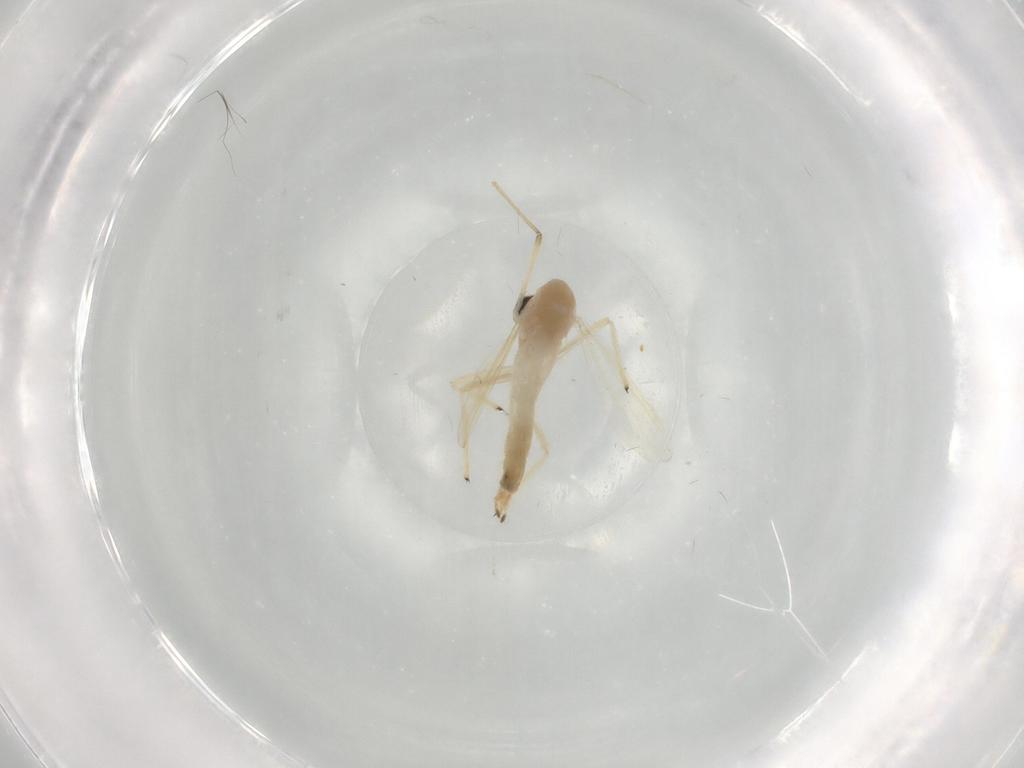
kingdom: Animalia
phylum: Arthropoda
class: Insecta
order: Diptera
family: Chironomidae
